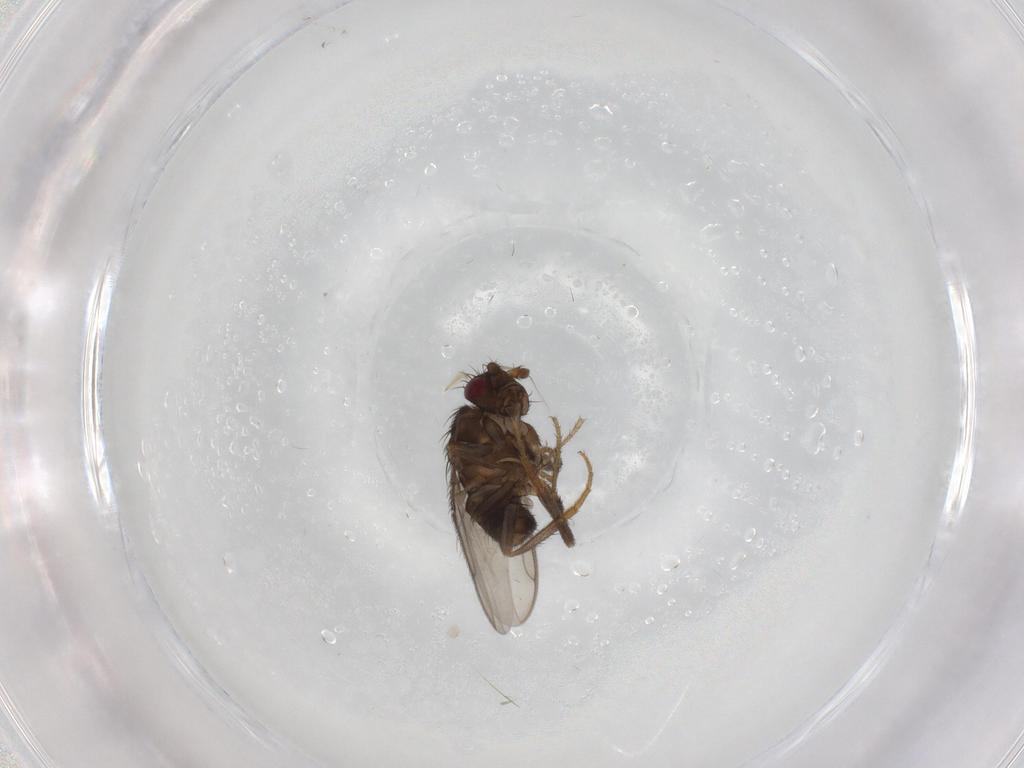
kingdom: Animalia
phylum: Arthropoda
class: Insecta
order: Diptera
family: Sphaeroceridae
